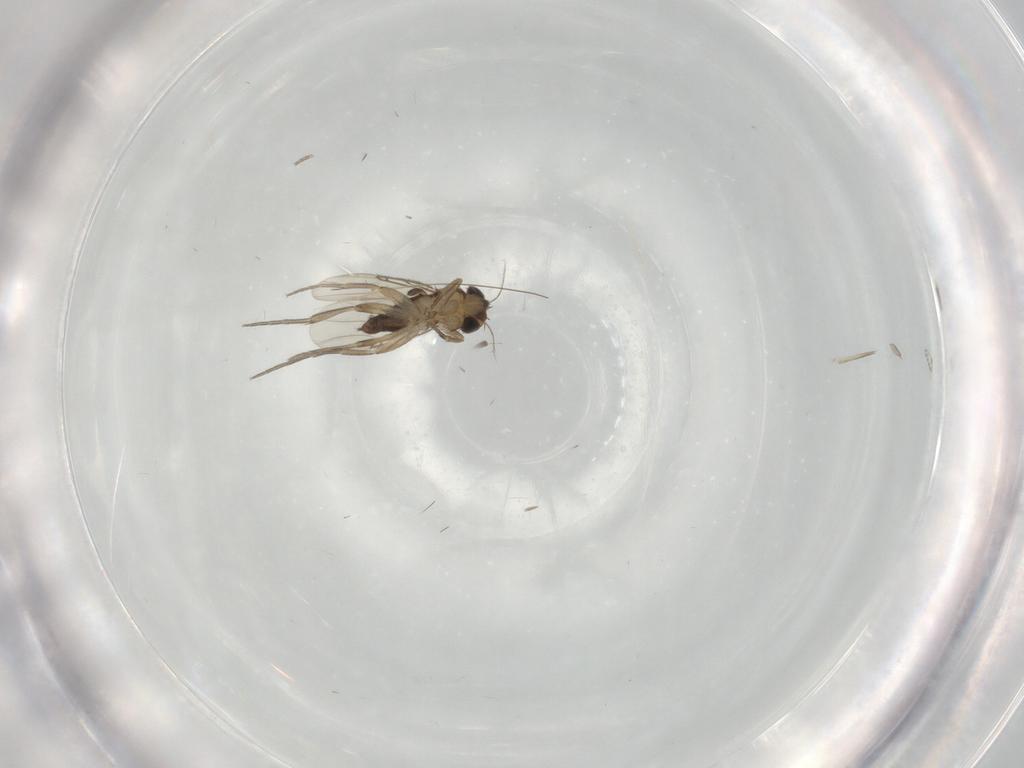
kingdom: Animalia
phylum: Arthropoda
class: Insecta
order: Diptera
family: Ceratopogonidae
